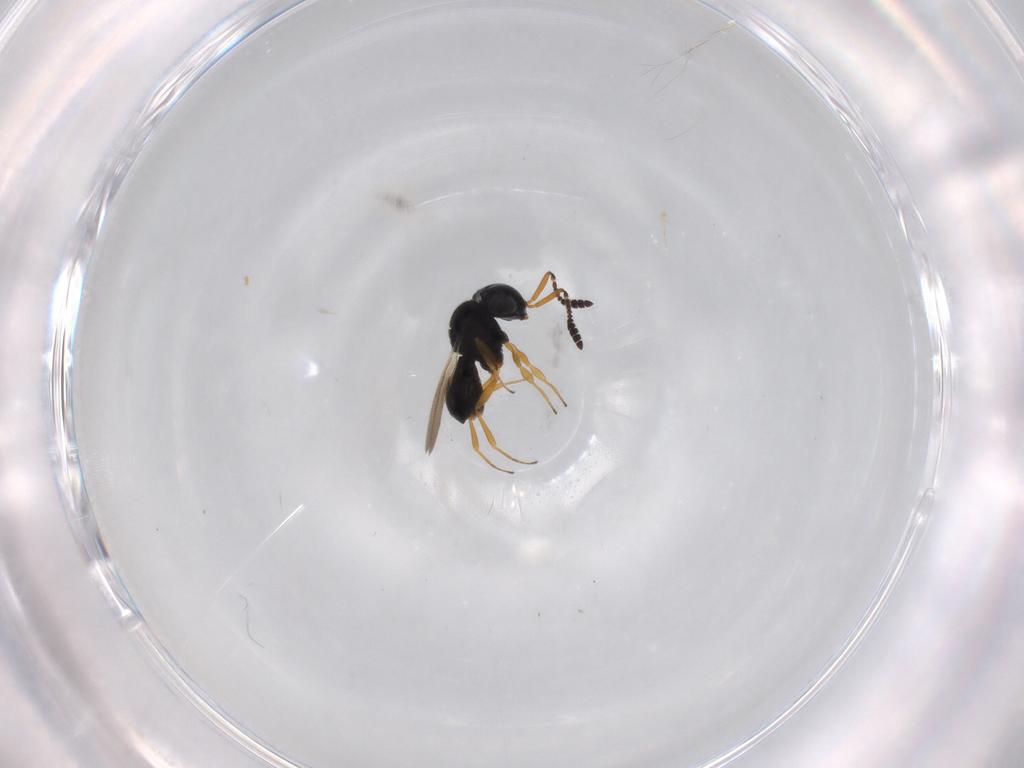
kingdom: Animalia
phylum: Arthropoda
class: Insecta
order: Hymenoptera
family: Scelionidae
